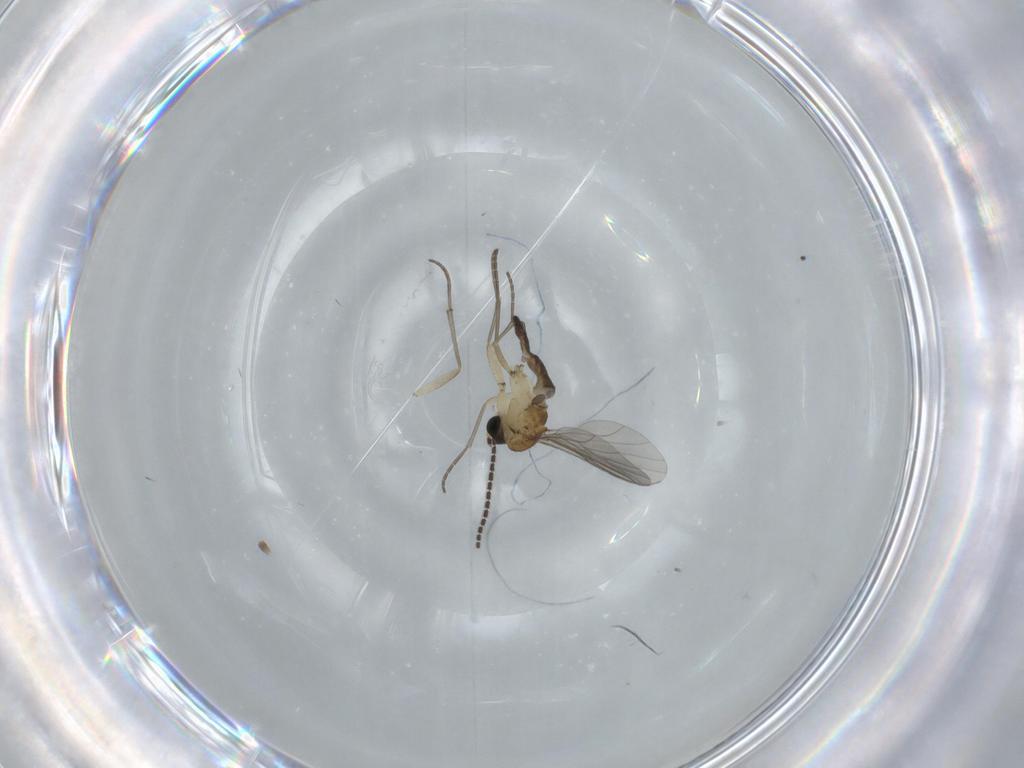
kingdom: Animalia
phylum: Arthropoda
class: Insecta
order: Diptera
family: Sciaridae
